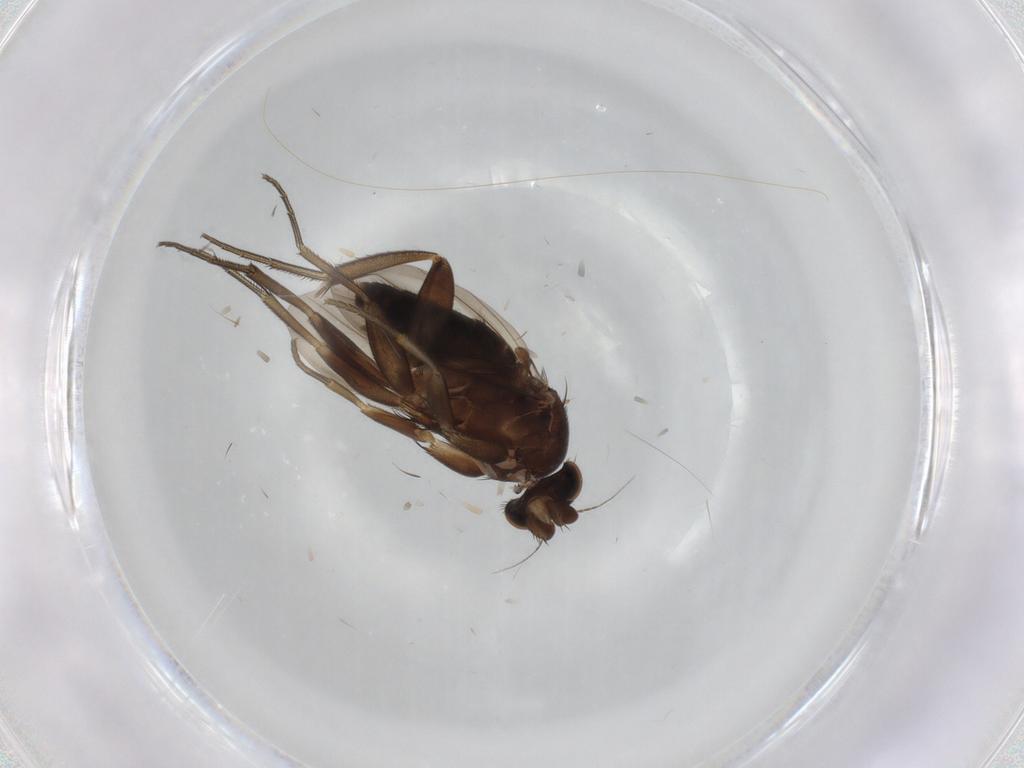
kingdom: Animalia
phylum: Arthropoda
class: Insecta
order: Diptera
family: Phoridae
